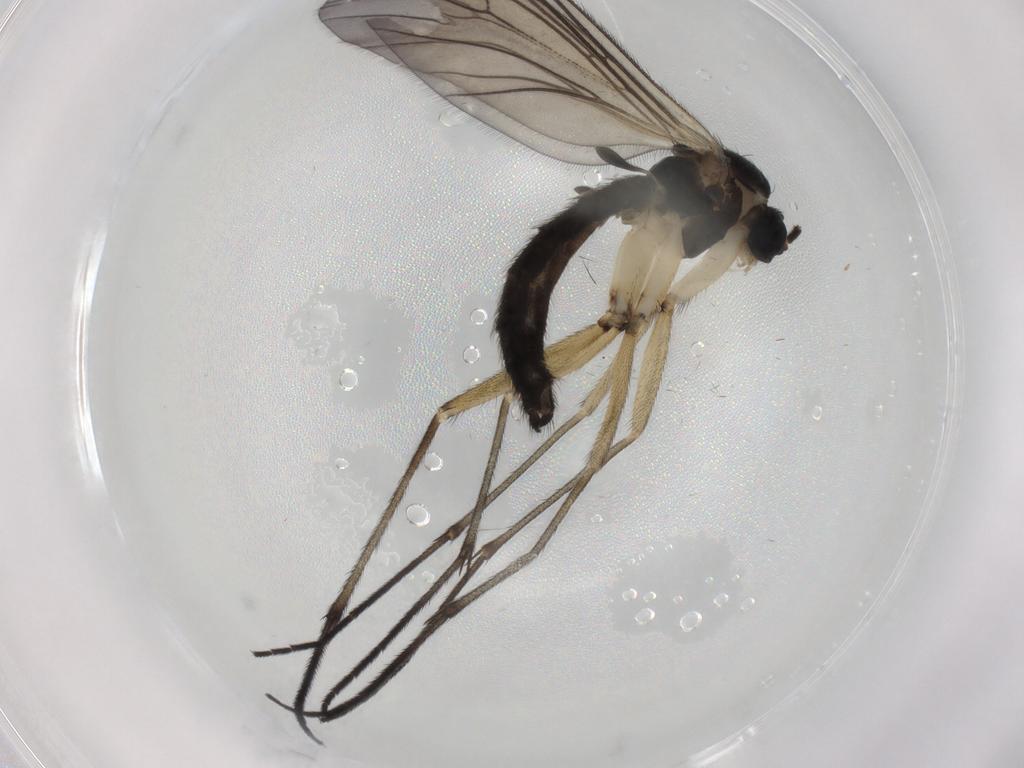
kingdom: Animalia
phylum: Arthropoda
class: Insecta
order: Diptera
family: Sciaridae
